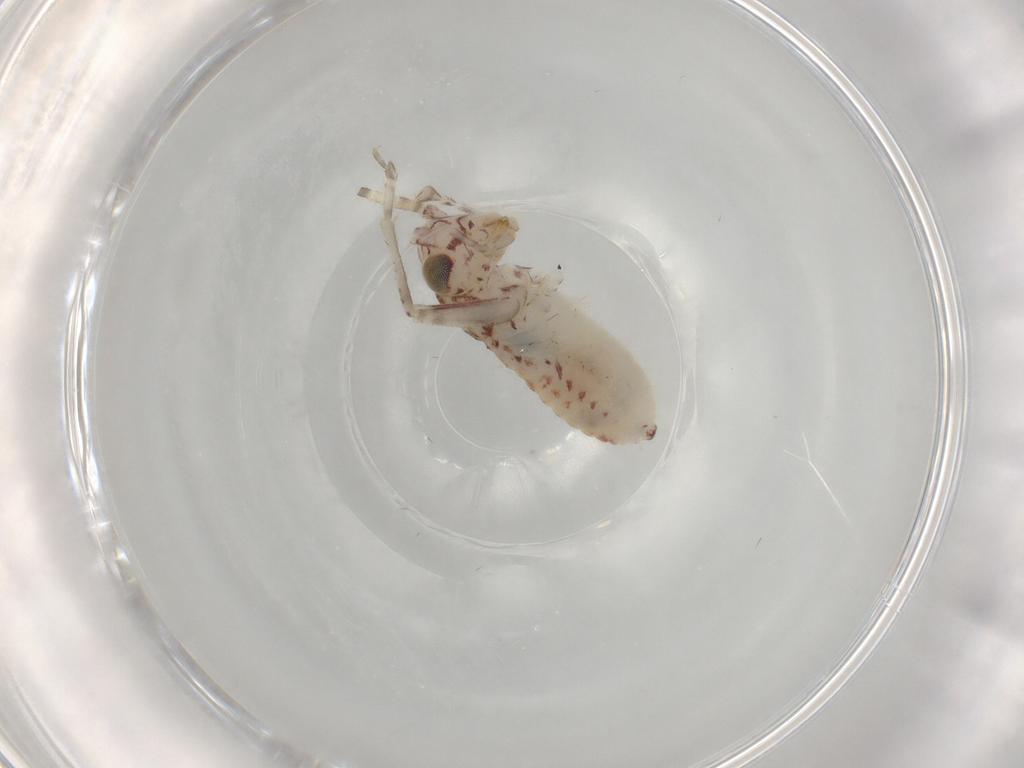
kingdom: Animalia
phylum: Arthropoda
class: Insecta
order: Orthoptera
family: Trigonidiidae
